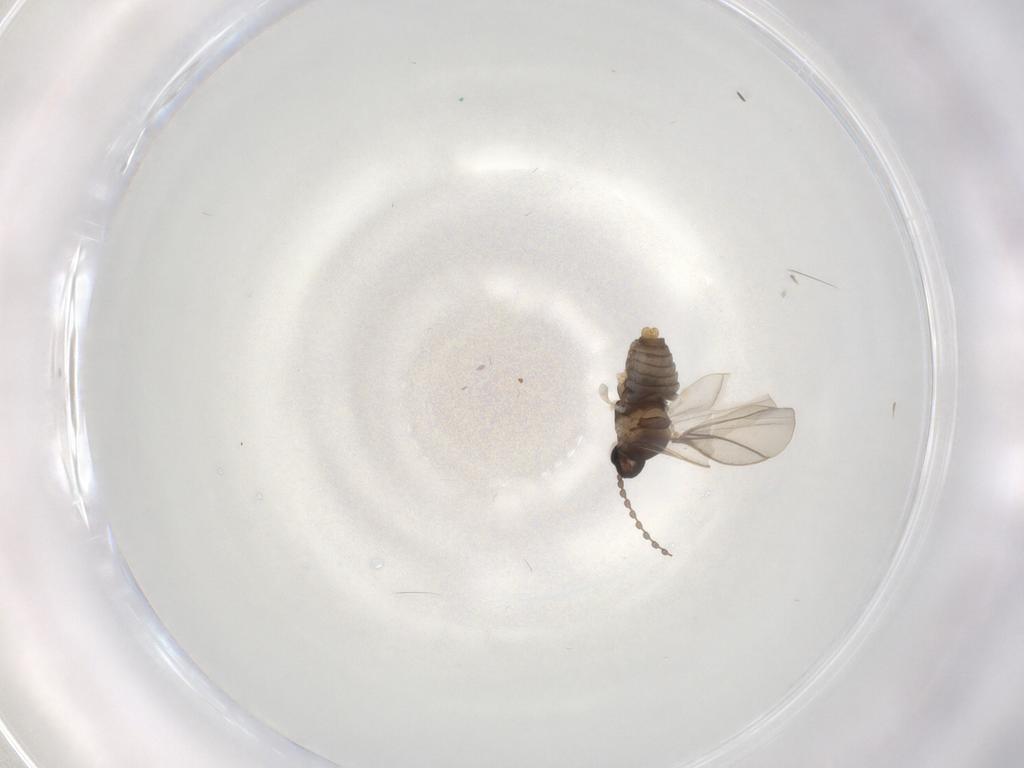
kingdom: Animalia
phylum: Arthropoda
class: Insecta
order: Diptera
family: Cecidomyiidae
